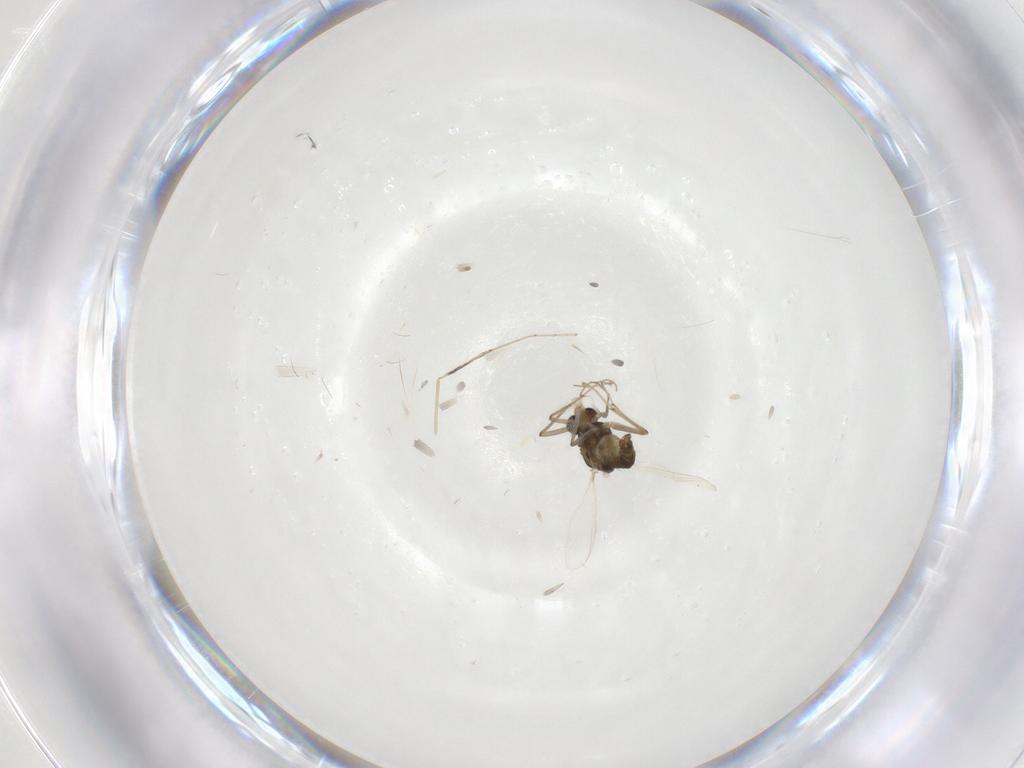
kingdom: Animalia
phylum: Arthropoda
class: Insecta
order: Diptera
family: Chironomidae
